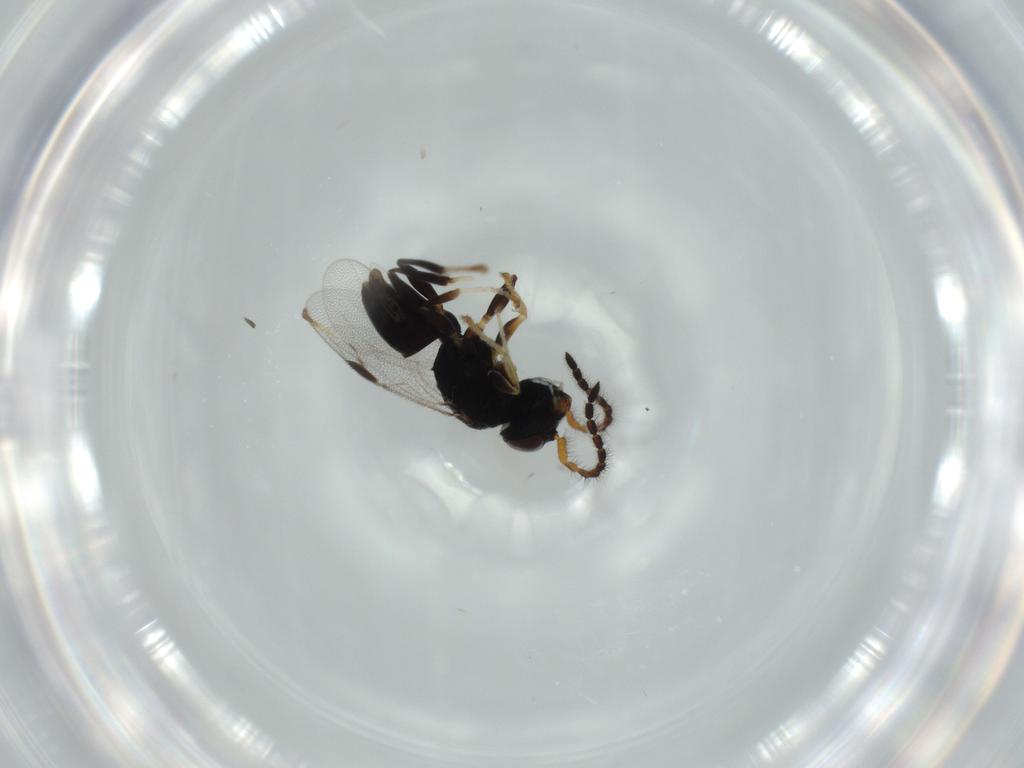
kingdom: Animalia
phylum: Arthropoda
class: Insecta
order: Hymenoptera
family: Dryinidae
